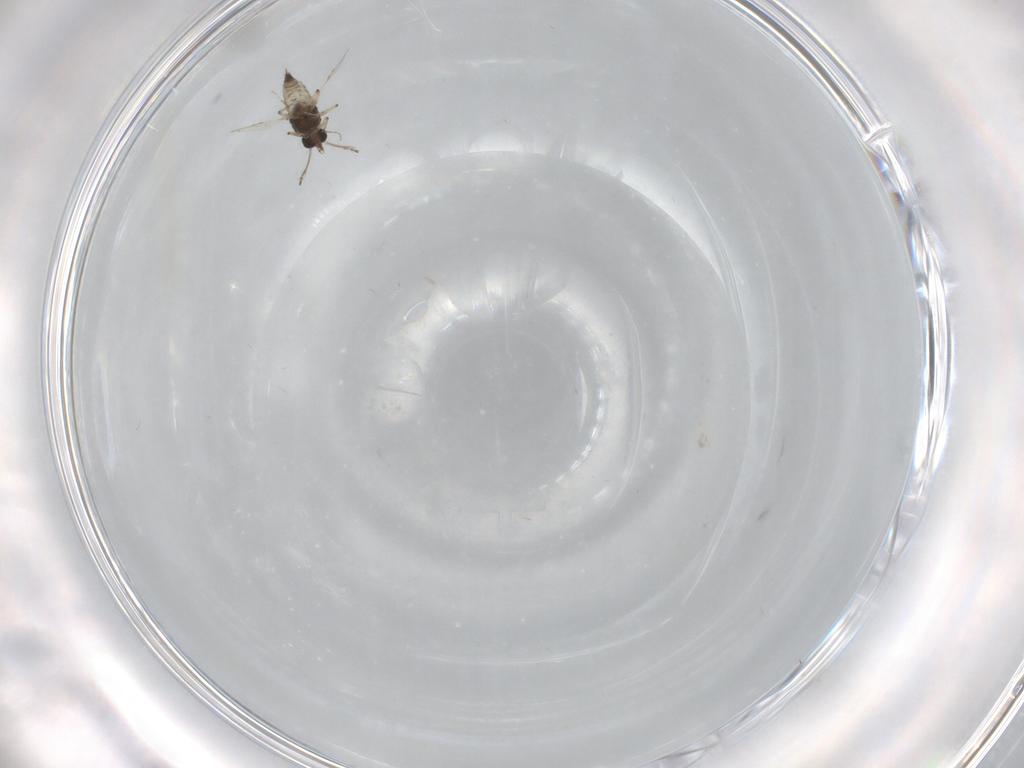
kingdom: Animalia
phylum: Arthropoda
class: Insecta
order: Diptera
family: Ceratopogonidae
